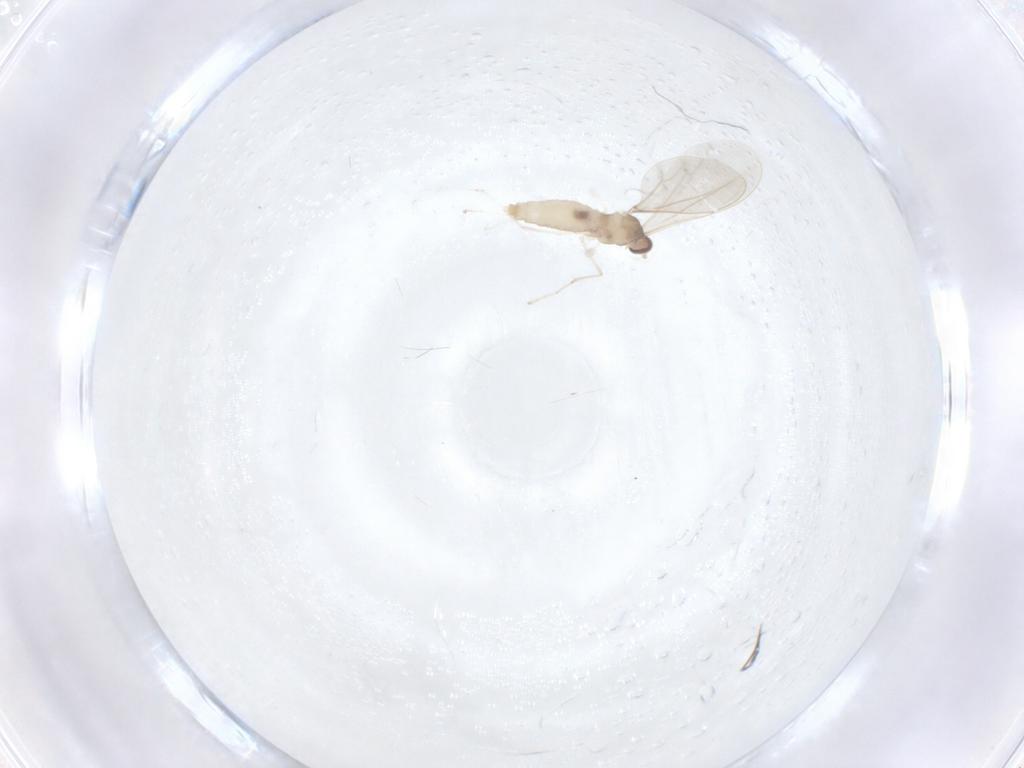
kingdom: Animalia
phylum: Arthropoda
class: Insecta
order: Diptera
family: Cecidomyiidae
